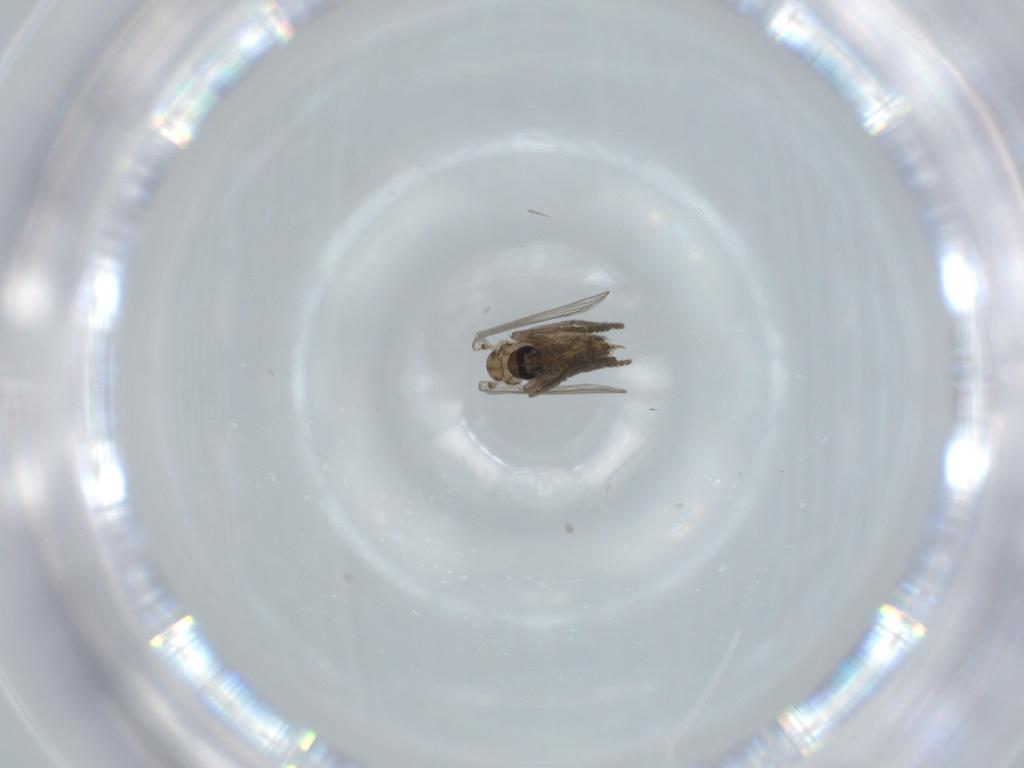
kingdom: Animalia
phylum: Arthropoda
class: Insecta
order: Diptera
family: Psychodidae
